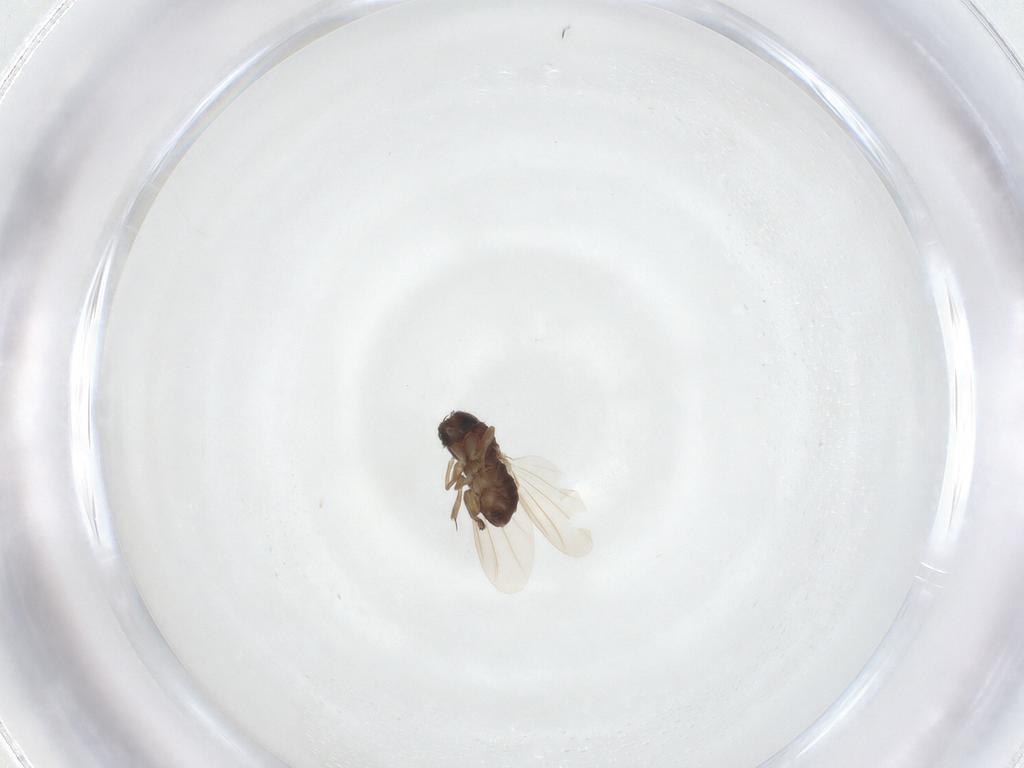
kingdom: Animalia
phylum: Arthropoda
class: Insecta
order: Diptera
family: Phoridae
